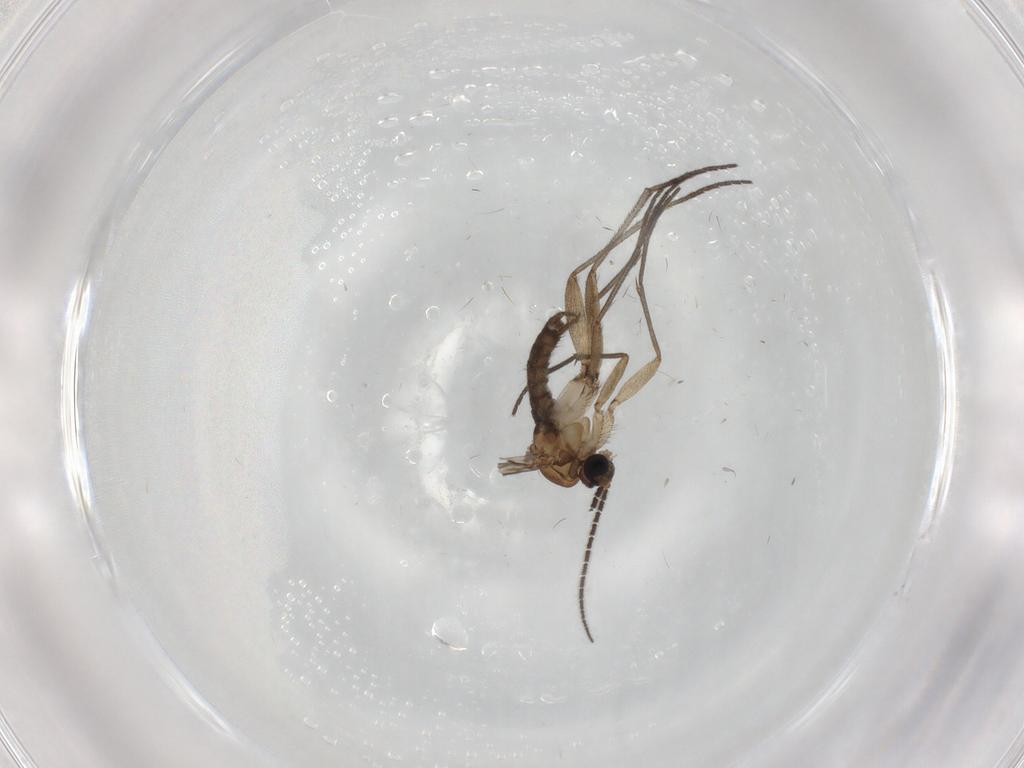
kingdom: Animalia
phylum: Arthropoda
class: Insecta
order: Diptera
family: Sciaridae
